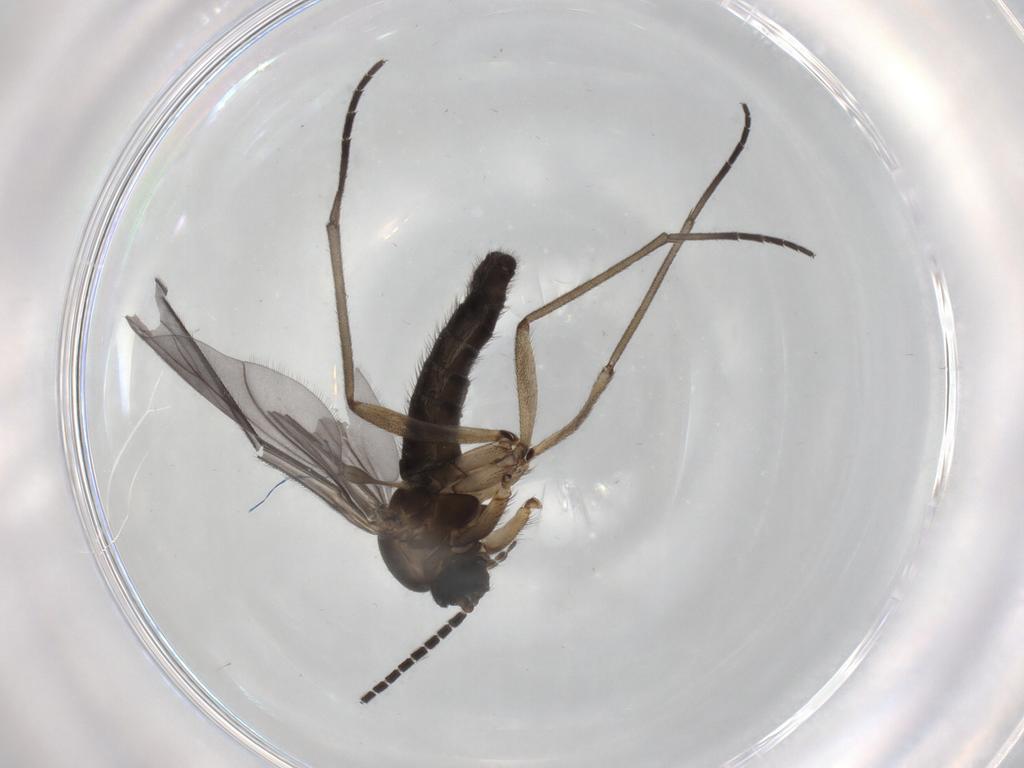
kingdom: Animalia
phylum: Arthropoda
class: Insecta
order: Diptera
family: Sciaridae
